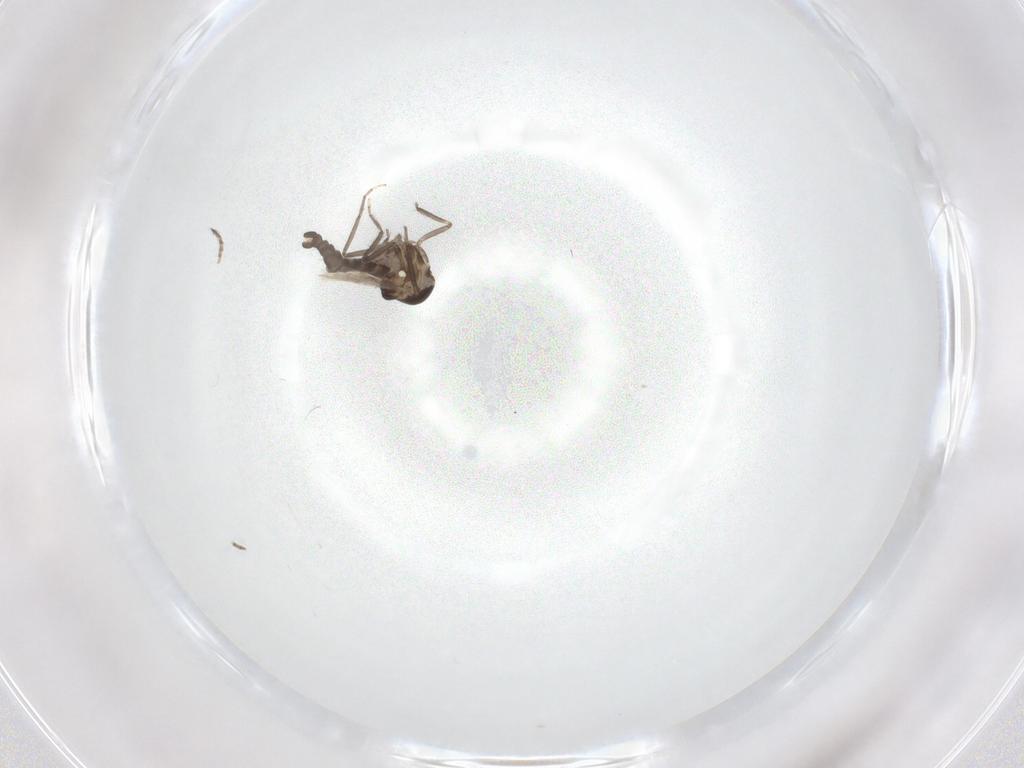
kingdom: Animalia
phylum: Arthropoda
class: Insecta
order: Diptera
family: Ceratopogonidae
